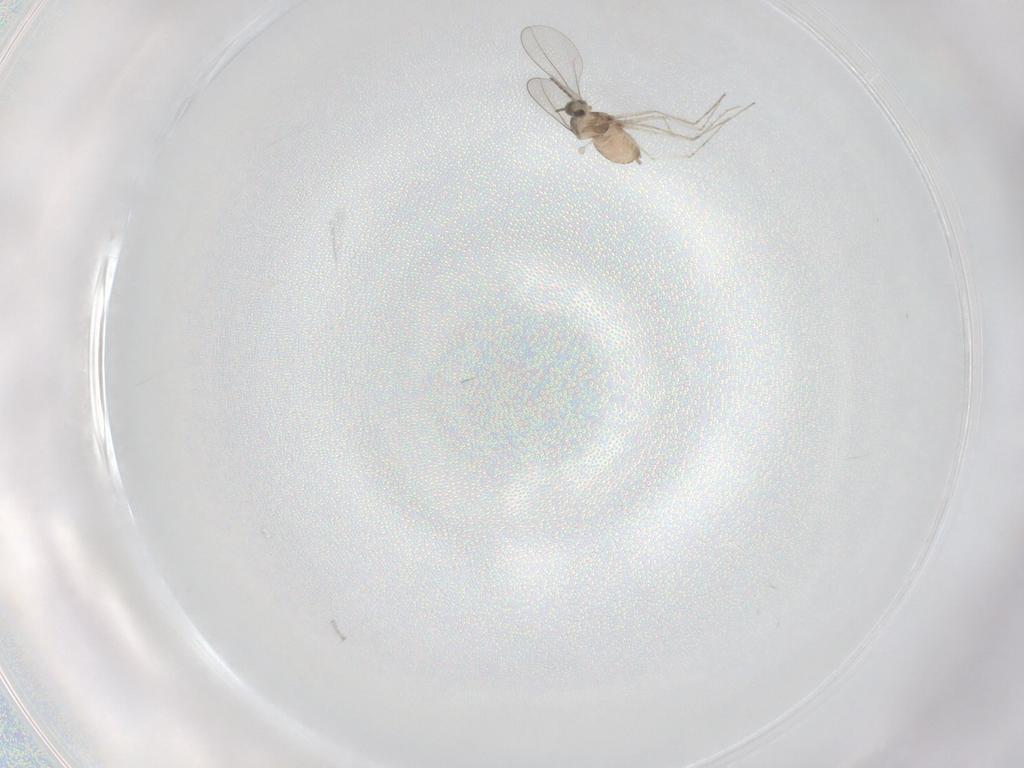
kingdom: Animalia
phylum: Arthropoda
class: Insecta
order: Diptera
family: Cecidomyiidae
